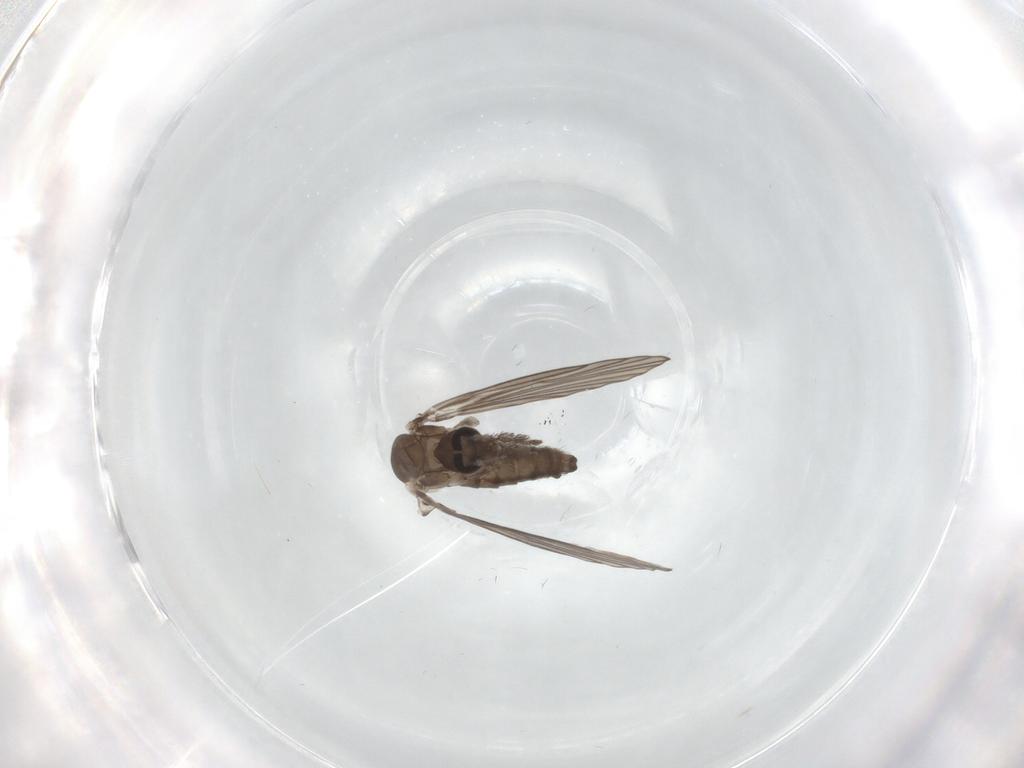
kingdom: Animalia
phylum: Arthropoda
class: Insecta
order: Diptera
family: Psychodidae
